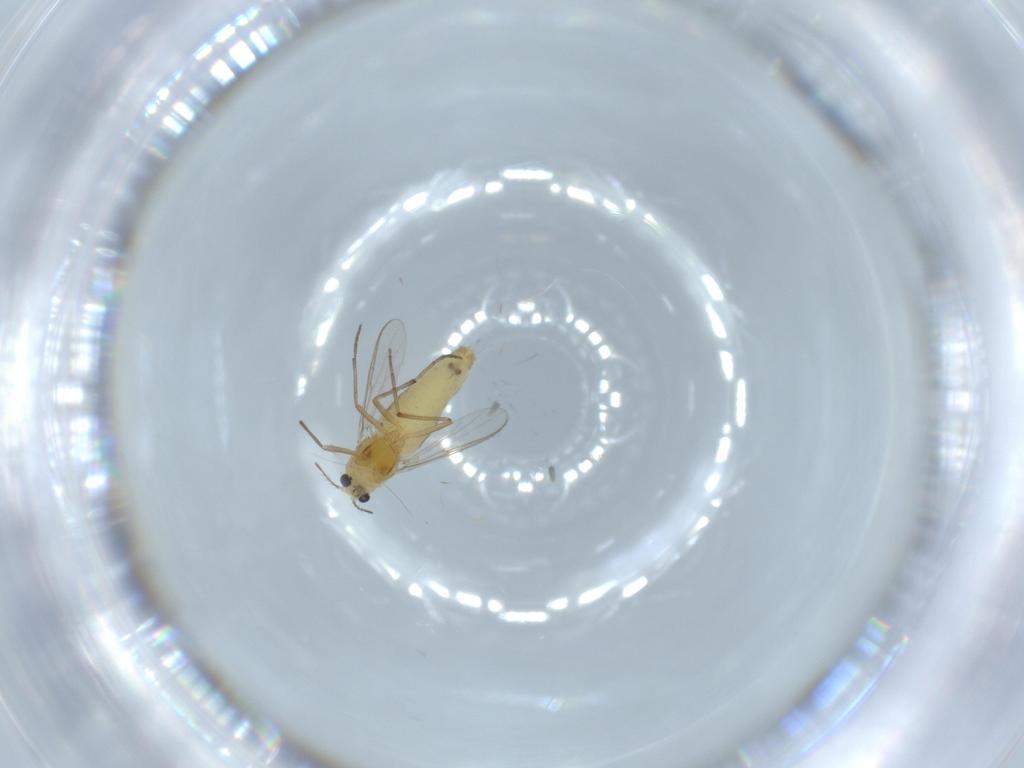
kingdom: Animalia
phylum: Arthropoda
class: Insecta
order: Diptera
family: Chironomidae
